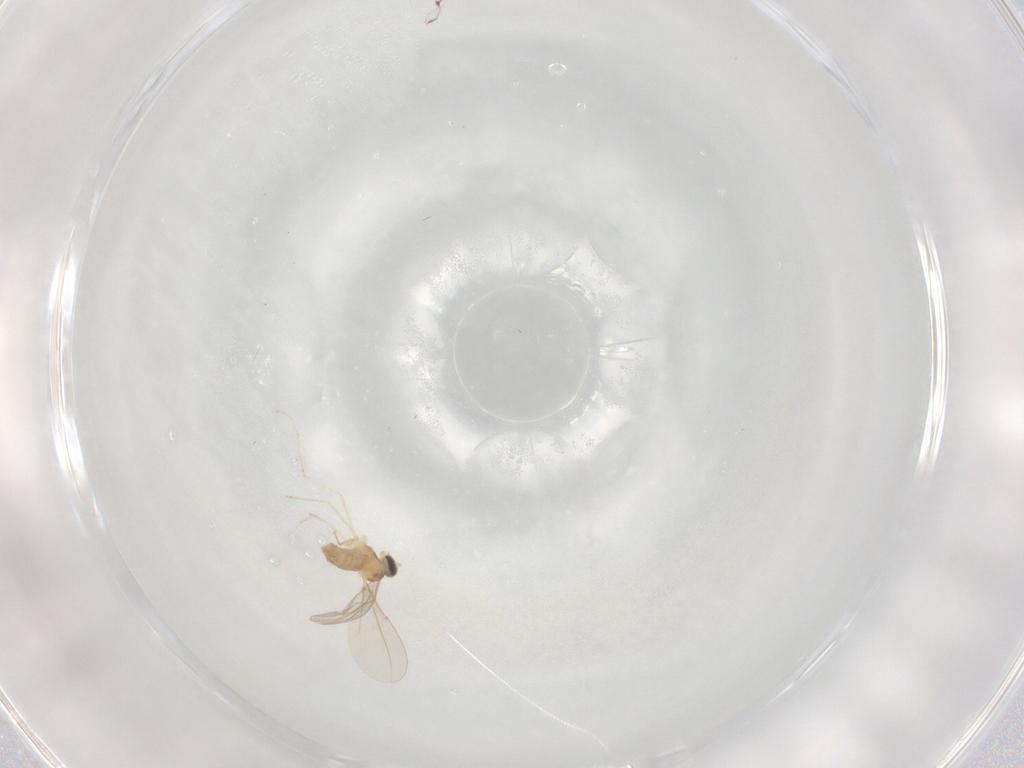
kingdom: Animalia
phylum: Arthropoda
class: Insecta
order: Diptera
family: Cecidomyiidae
